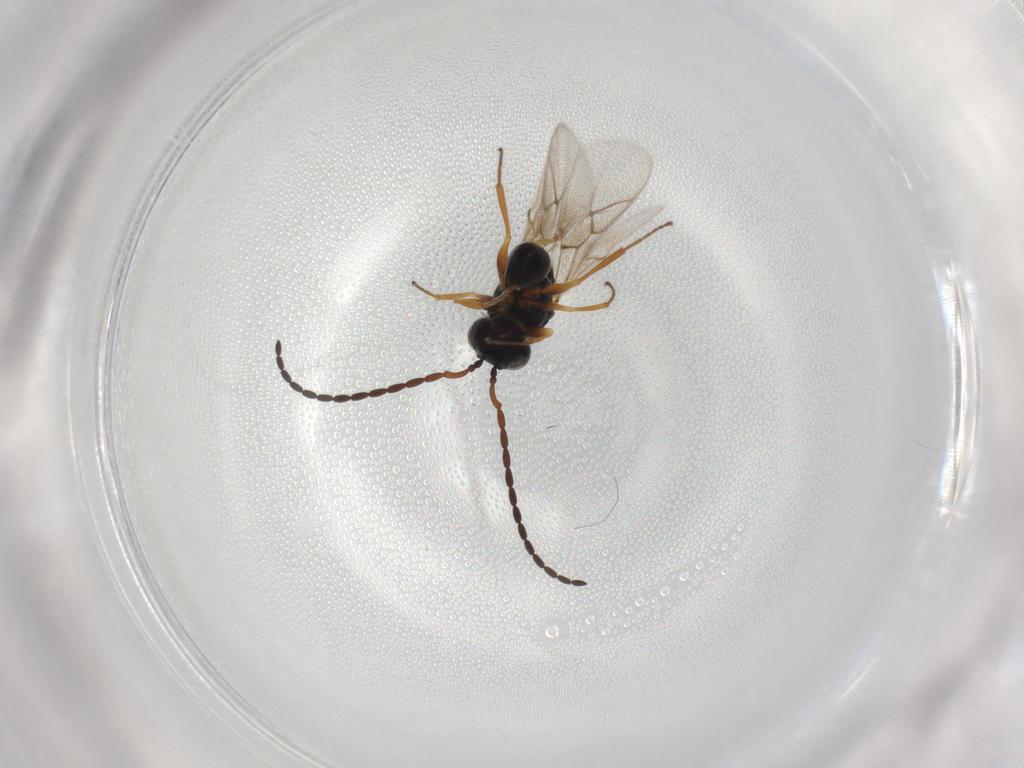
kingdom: Animalia
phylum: Arthropoda
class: Insecta
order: Hymenoptera
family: Figitidae
